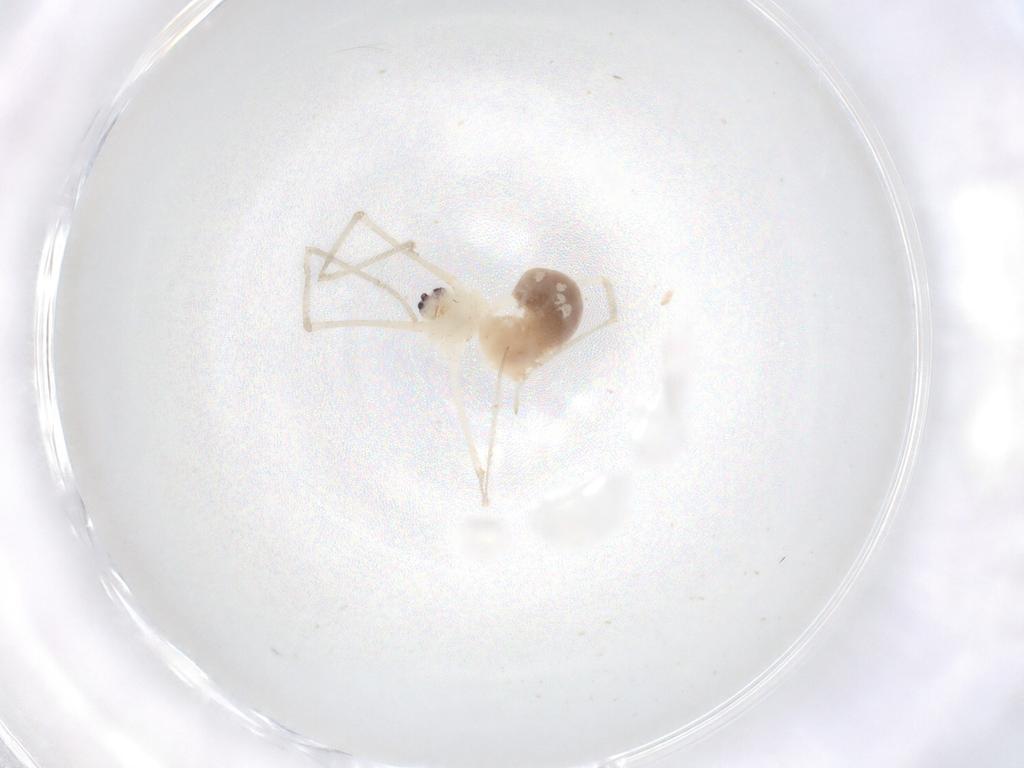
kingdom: Animalia
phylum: Arthropoda
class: Arachnida
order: Araneae
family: Pholcidae
